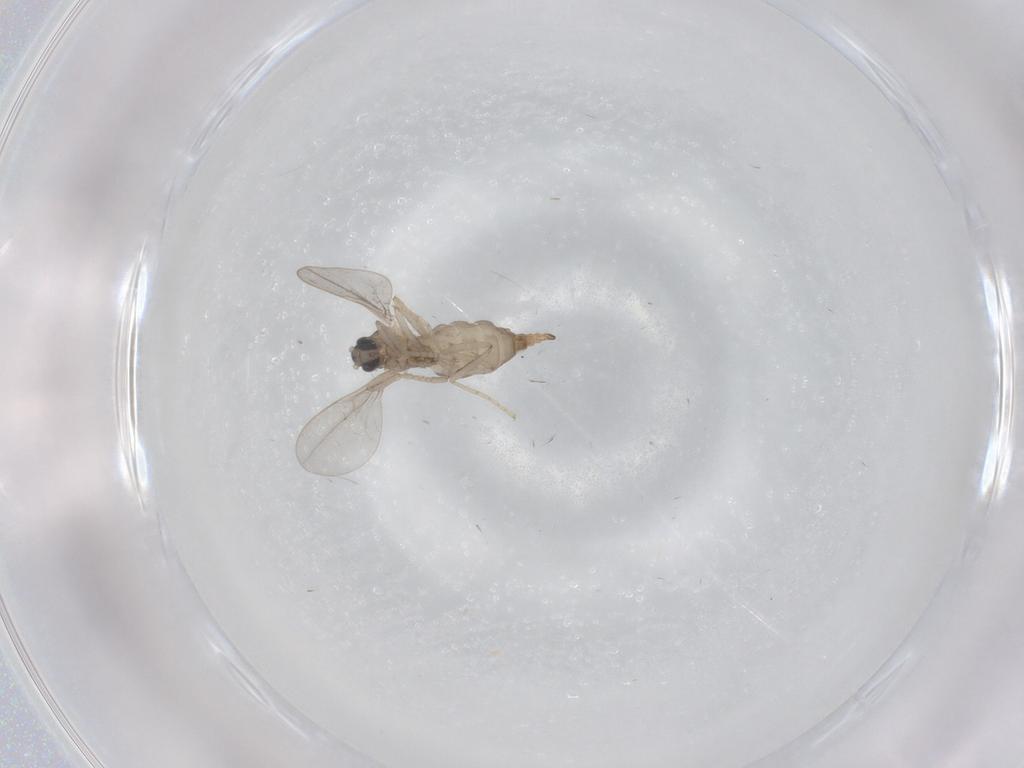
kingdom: Animalia
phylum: Arthropoda
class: Insecta
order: Diptera
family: Cecidomyiidae
